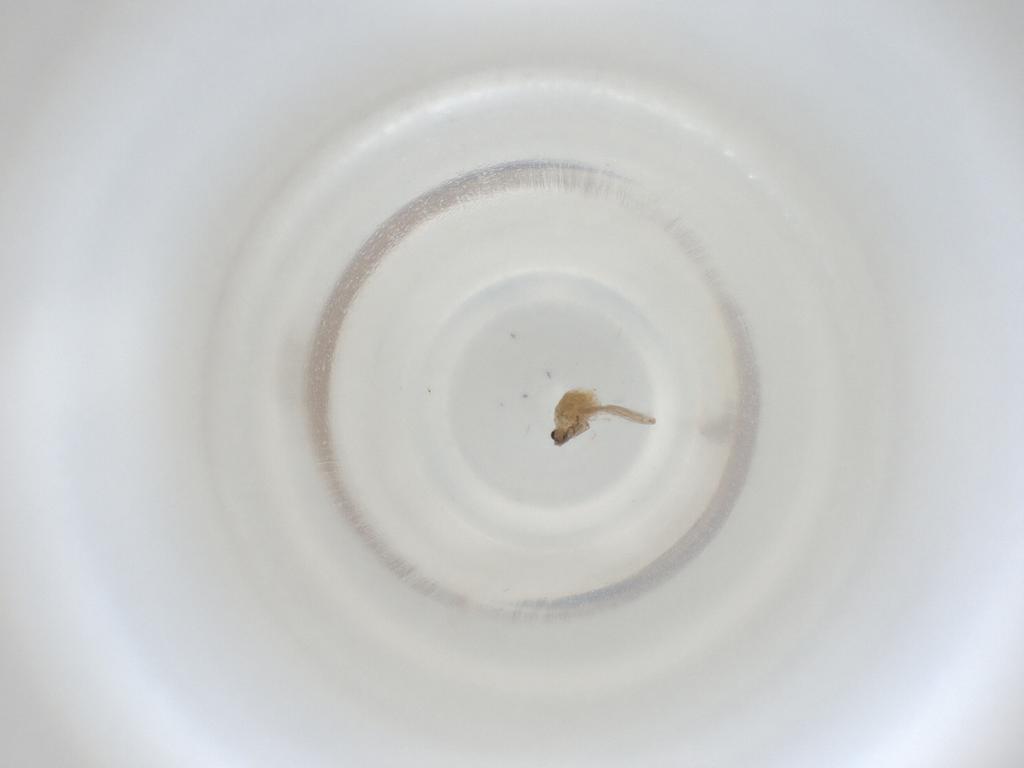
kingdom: Animalia
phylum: Arthropoda
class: Insecta
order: Diptera
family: Cecidomyiidae
